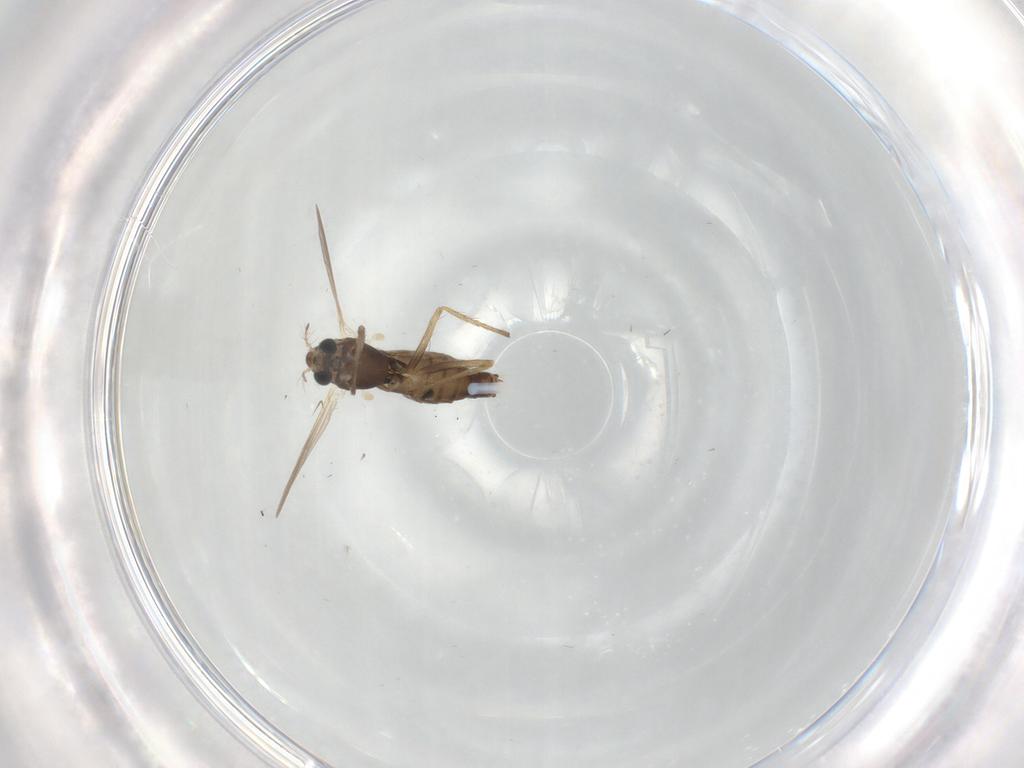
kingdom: Animalia
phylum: Arthropoda
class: Insecta
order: Diptera
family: Chironomidae
